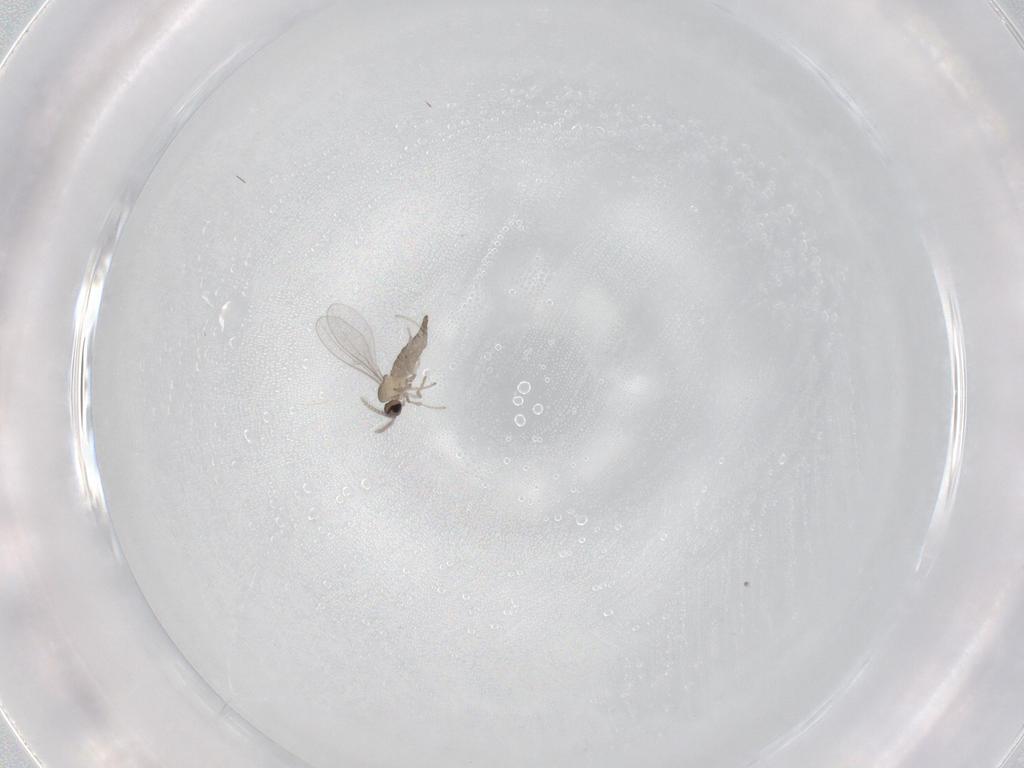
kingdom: Animalia
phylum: Arthropoda
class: Insecta
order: Diptera
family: Cecidomyiidae
